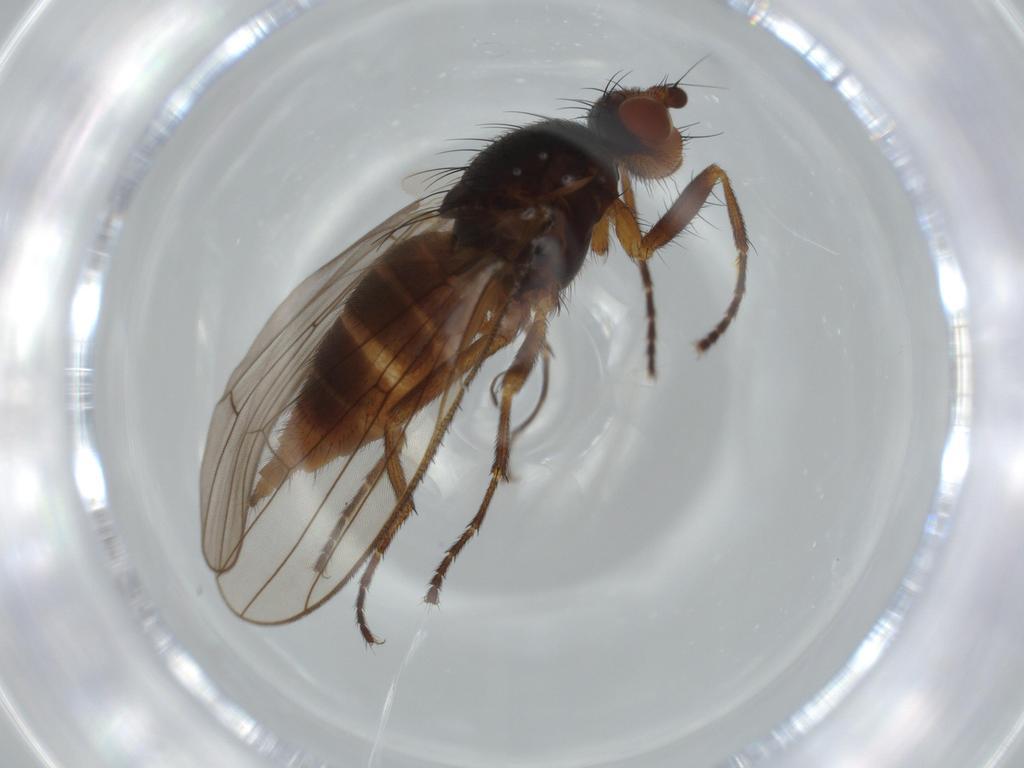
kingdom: Animalia
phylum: Arthropoda
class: Insecta
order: Diptera
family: Heleomyzidae
